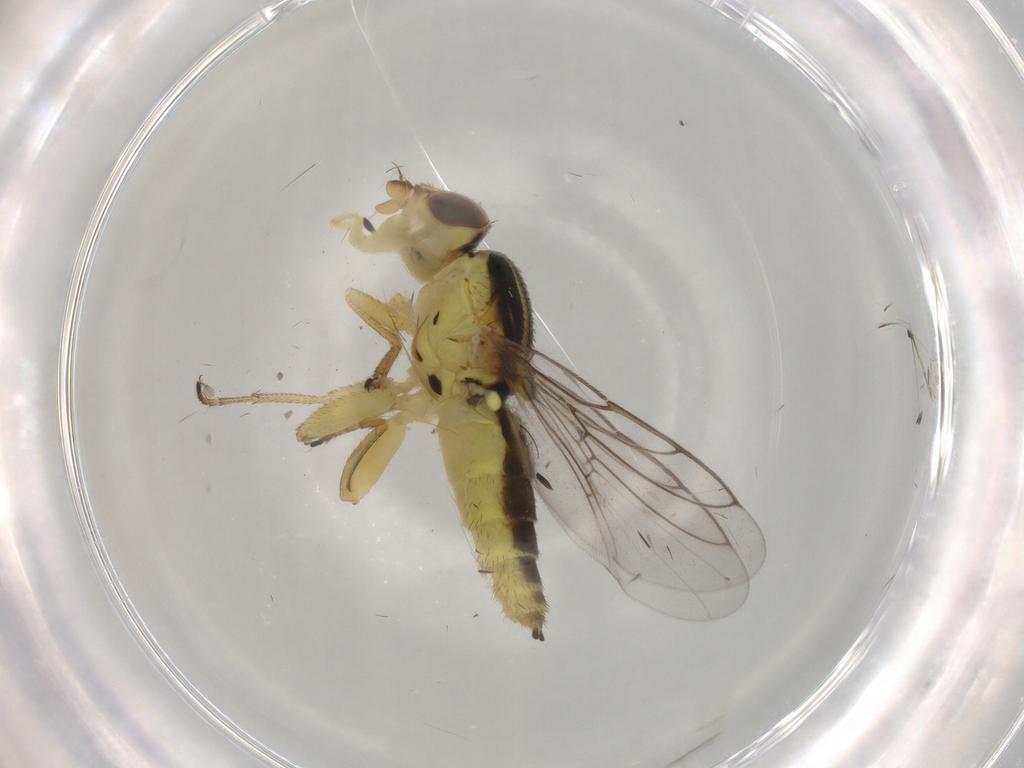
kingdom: Animalia
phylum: Arthropoda
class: Insecta
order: Diptera
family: Chloropidae
